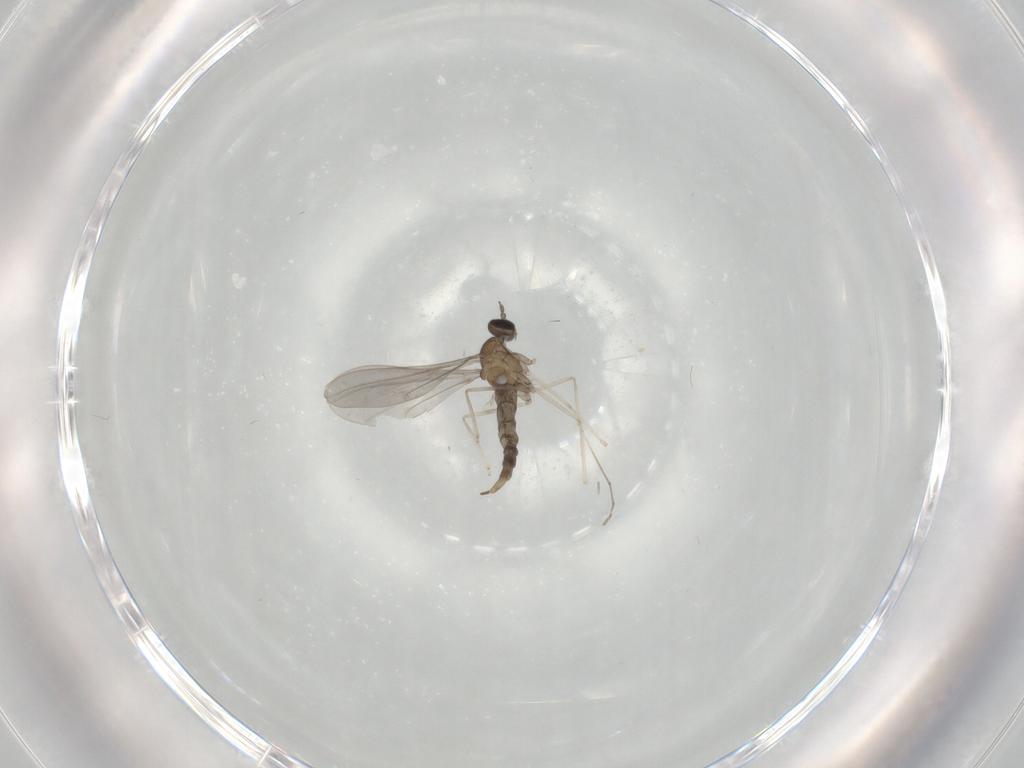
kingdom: Animalia
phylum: Arthropoda
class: Insecta
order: Diptera
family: Cecidomyiidae
